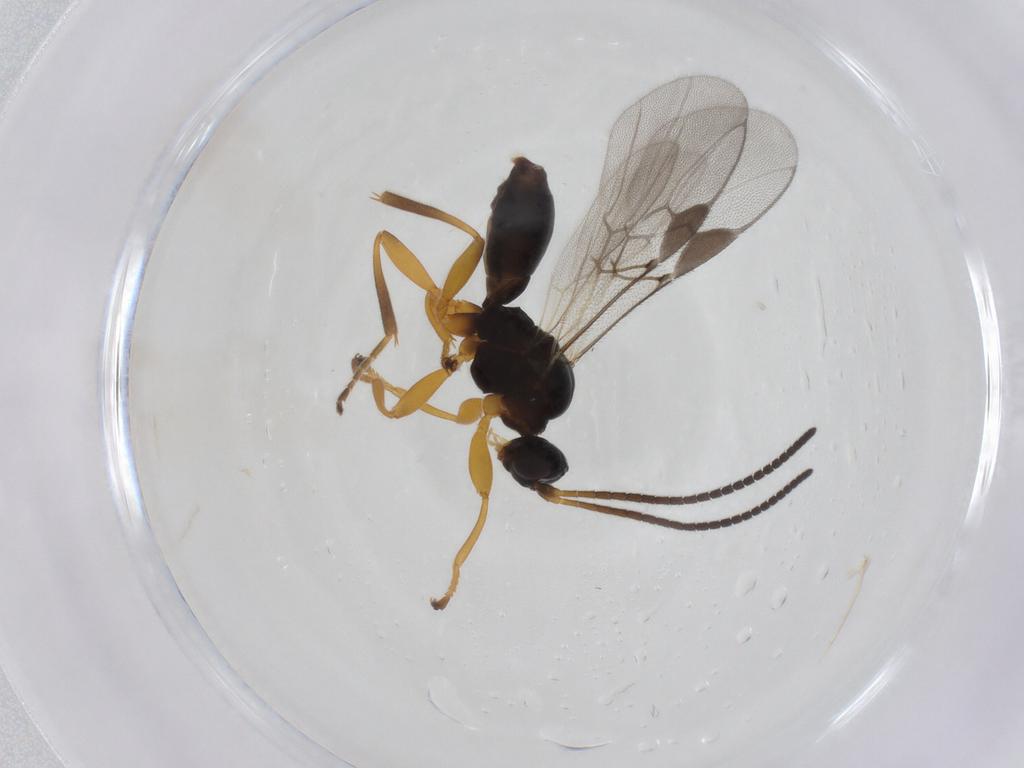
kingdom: Animalia
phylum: Arthropoda
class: Insecta
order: Hymenoptera
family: Braconidae
